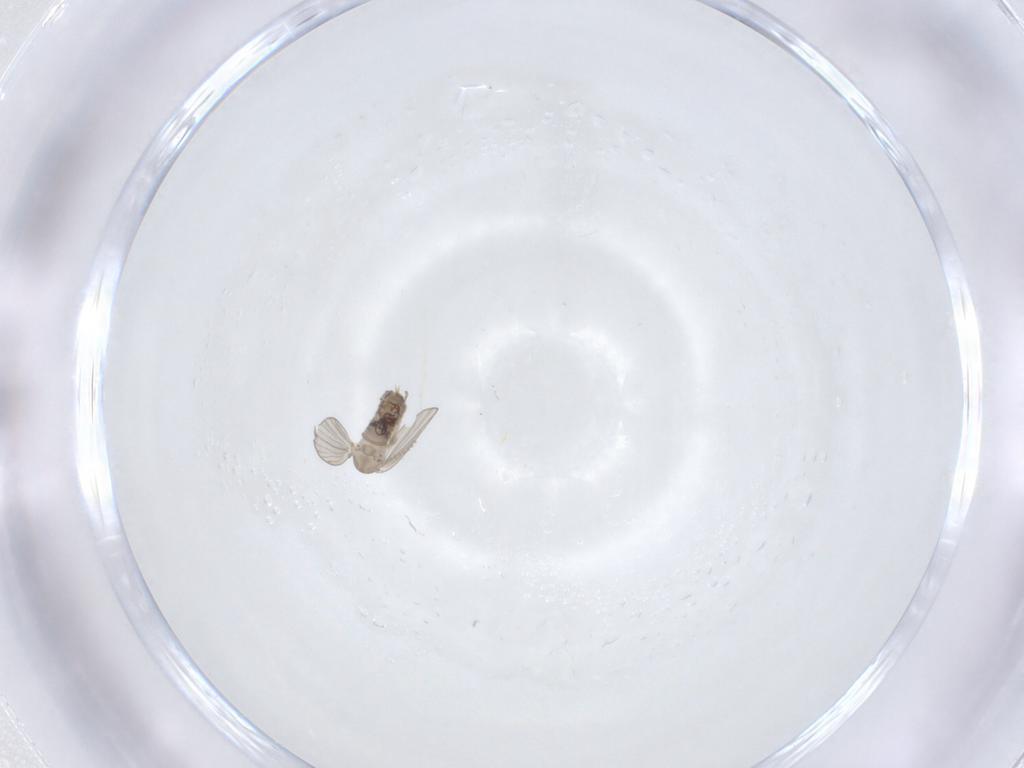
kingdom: Animalia
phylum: Arthropoda
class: Insecta
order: Diptera
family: Psychodidae
